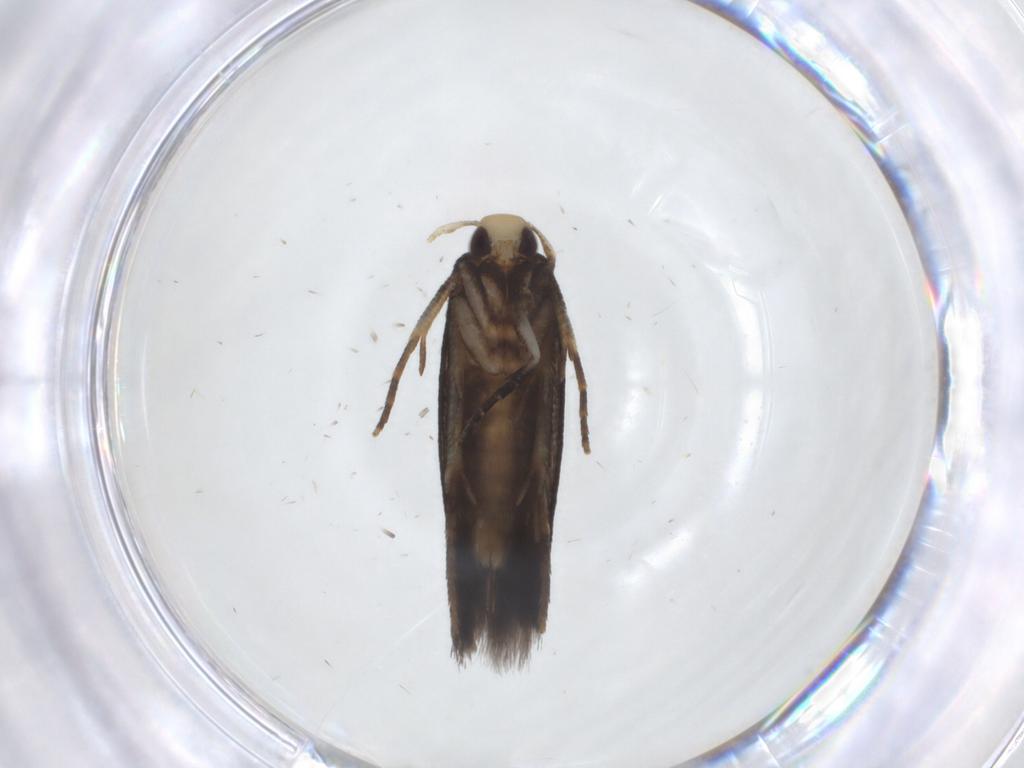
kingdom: Animalia
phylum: Arthropoda
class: Insecta
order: Lepidoptera
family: Cosmopterigidae
